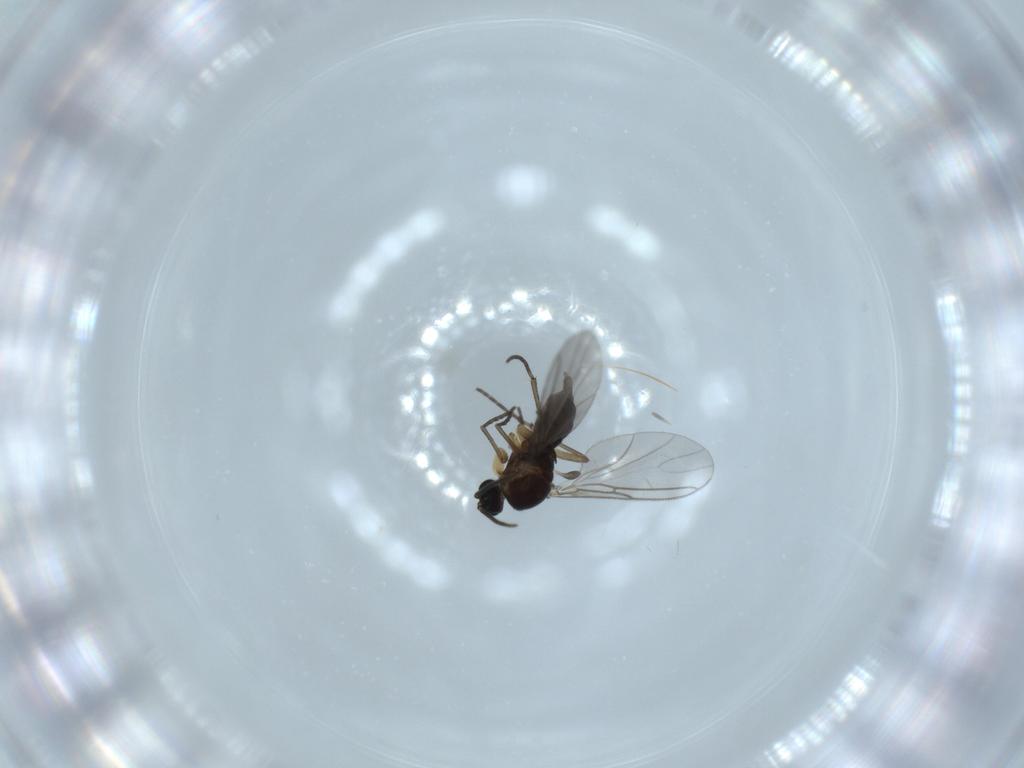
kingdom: Animalia
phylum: Arthropoda
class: Insecta
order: Diptera
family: Sciaridae
